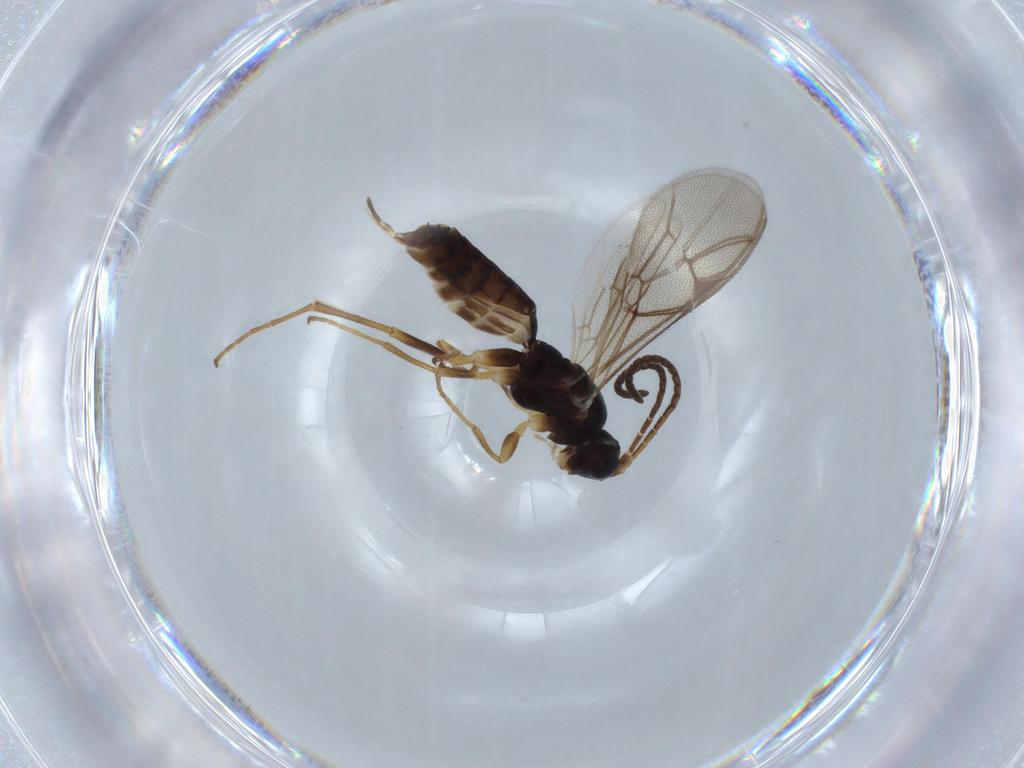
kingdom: Animalia
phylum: Arthropoda
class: Insecta
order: Hymenoptera
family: Ichneumonidae
